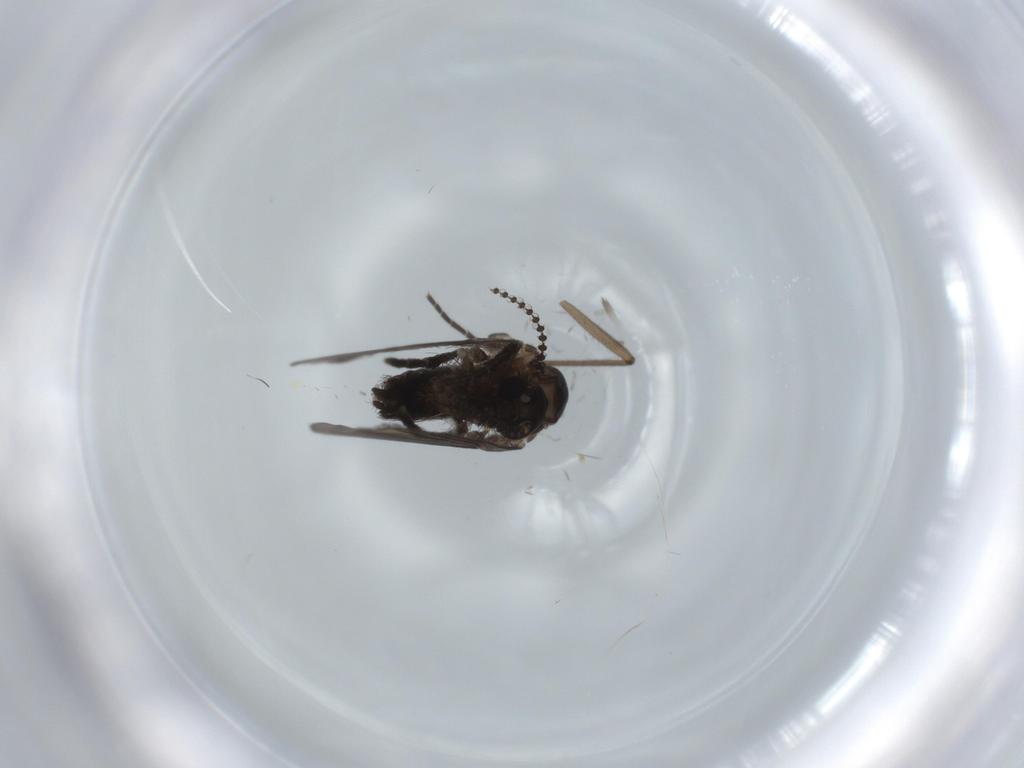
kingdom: Animalia
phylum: Arthropoda
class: Insecta
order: Diptera
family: Psychodidae
